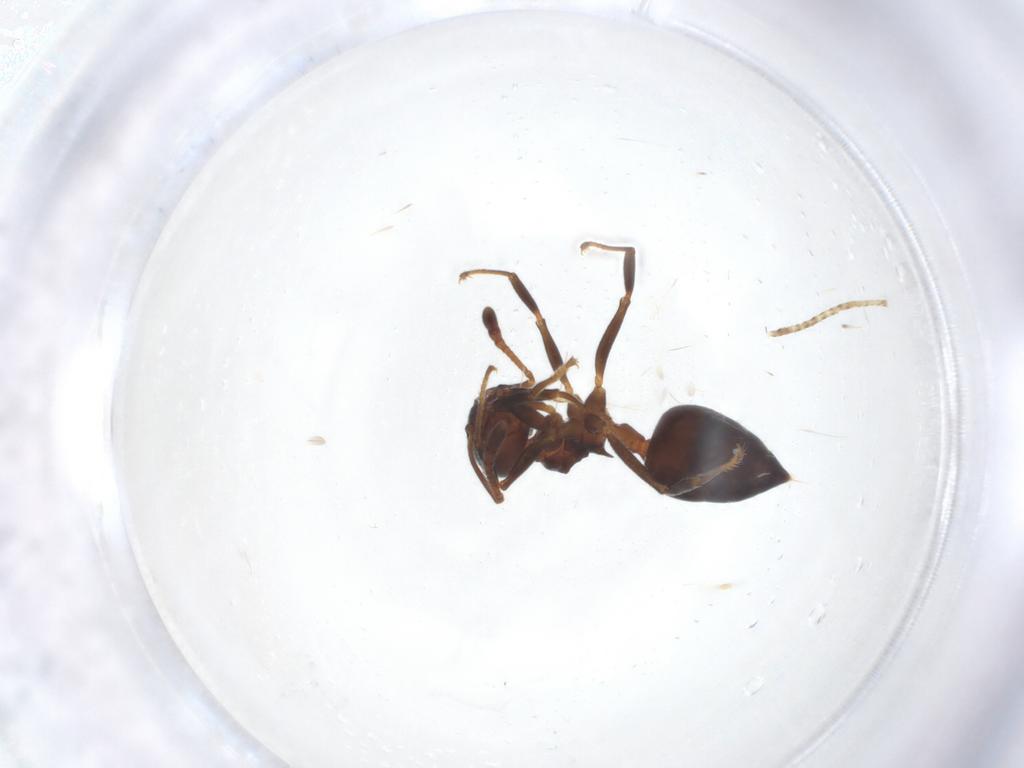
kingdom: Animalia
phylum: Arthropoda
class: Insecta
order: Hymenoptera
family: Formicidae
